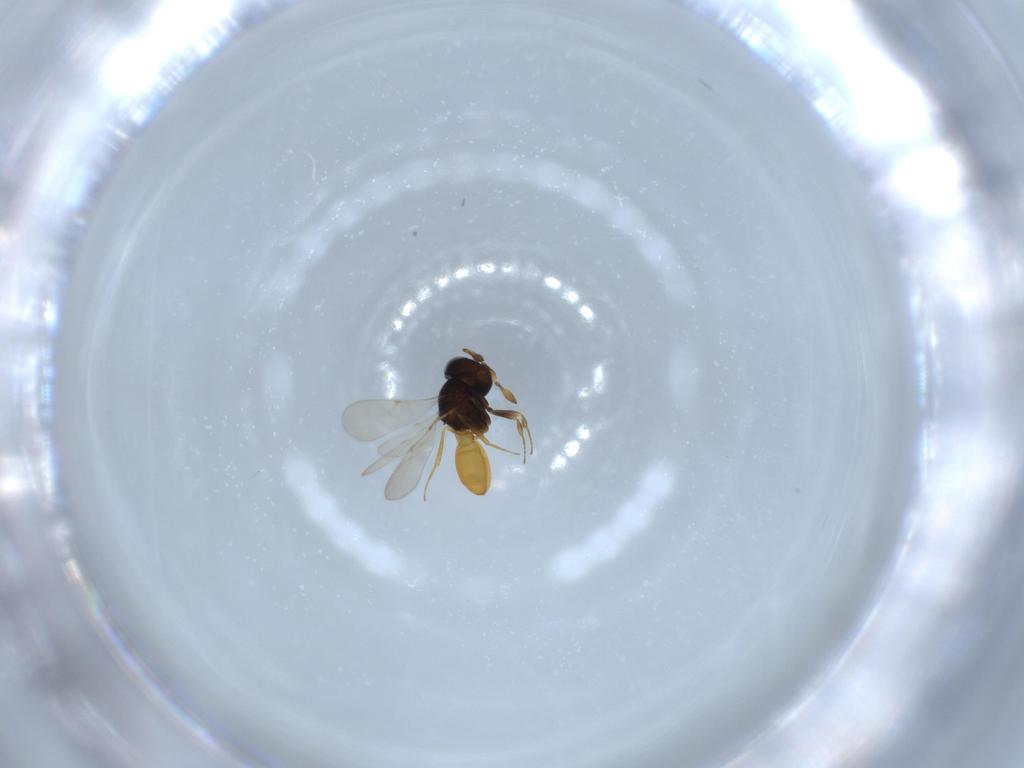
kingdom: Animalia
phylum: Arthropoda
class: Insecta
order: Hymenoptera
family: Scelionidae
